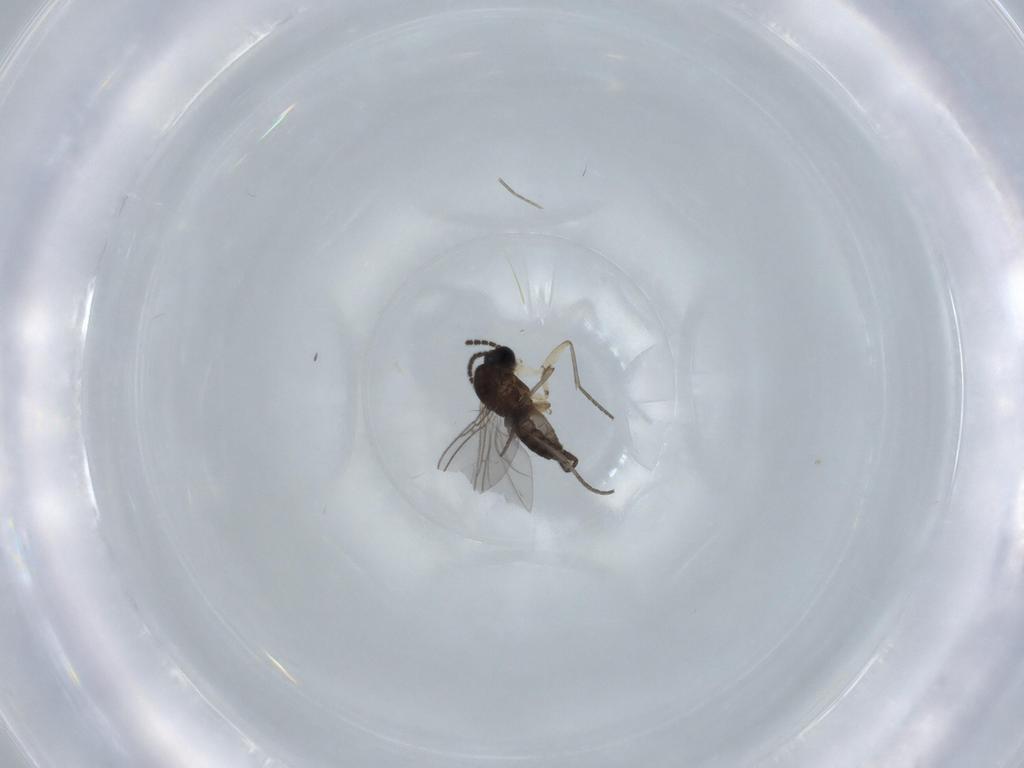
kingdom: Animalia
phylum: Arthropoda
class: Insecta
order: Diptera
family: Sciaridae
